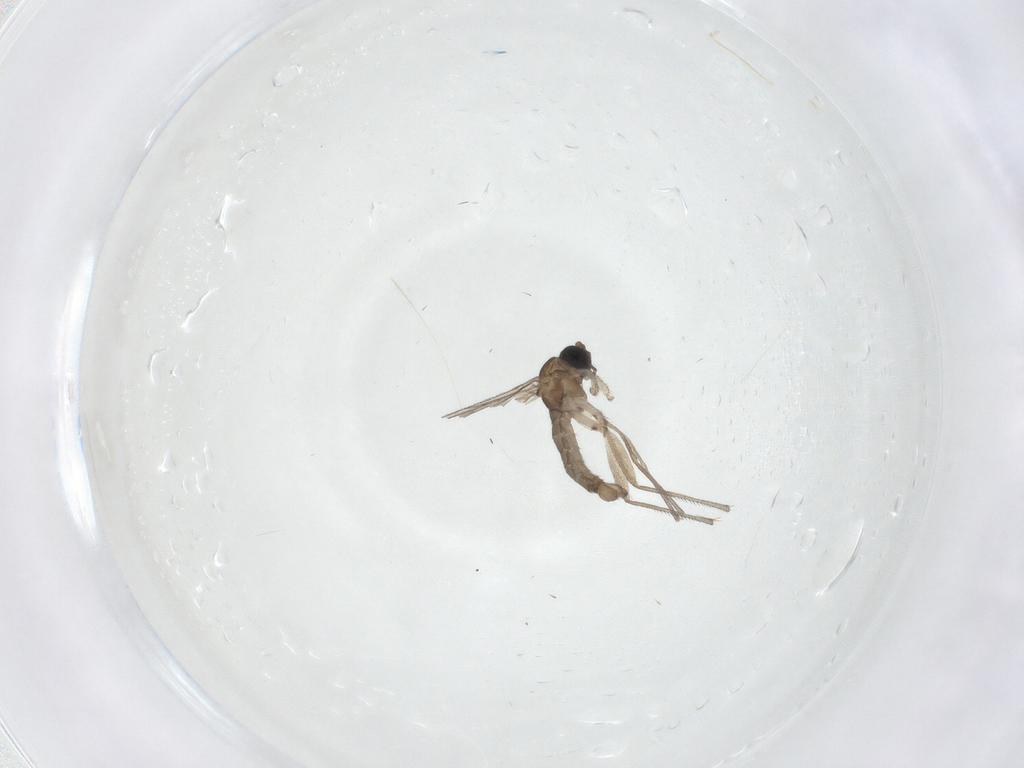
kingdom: Animalia
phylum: Arthropoda
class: Insecta
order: Diptera
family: Sciaridae
